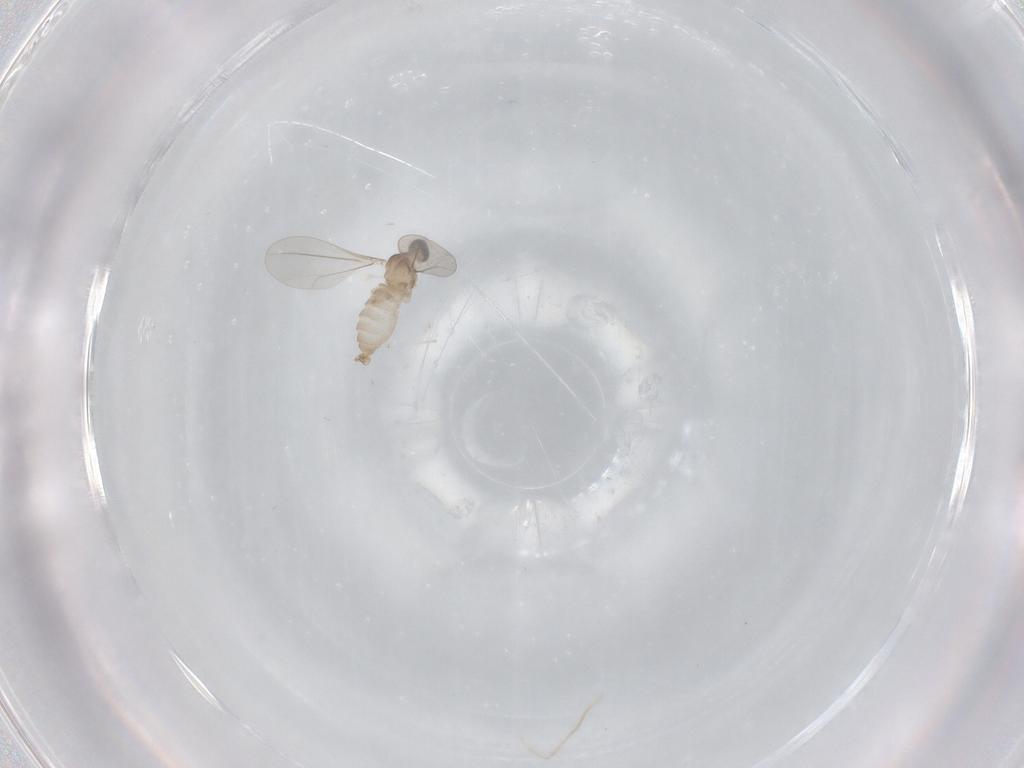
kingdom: Animalia
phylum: Arthropoda
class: Insecta
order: Diptera
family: Cecidomyiidae
